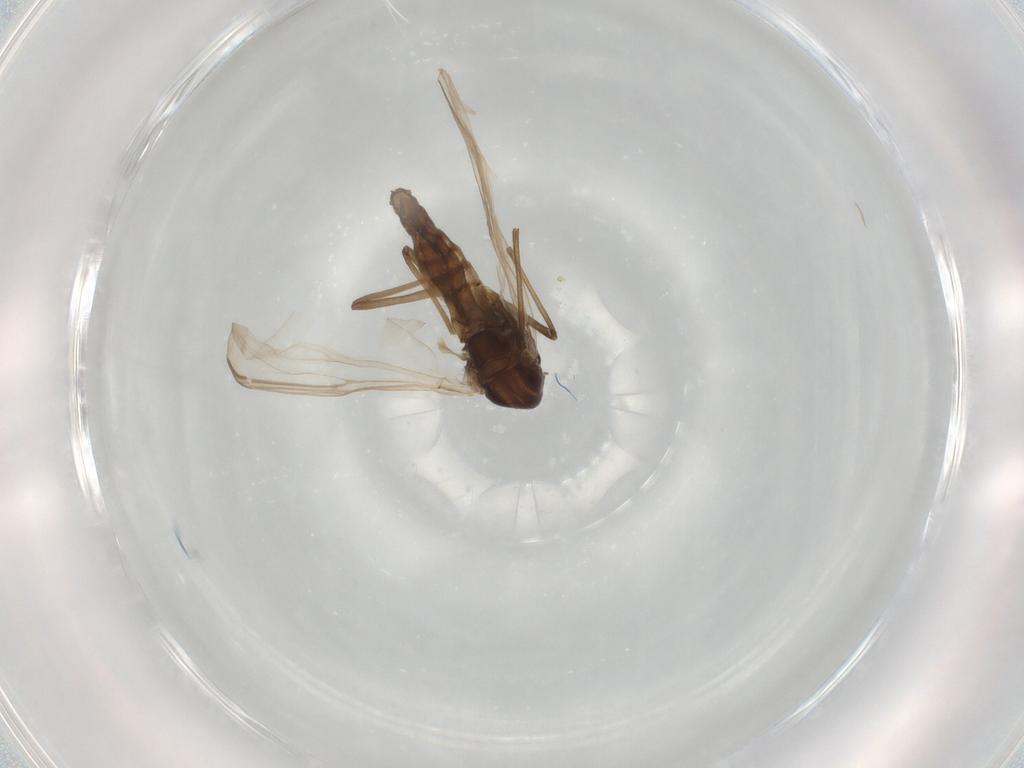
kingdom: Animalia
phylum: Arthropoda
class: Insecta
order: Diptera
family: Chironomidae
